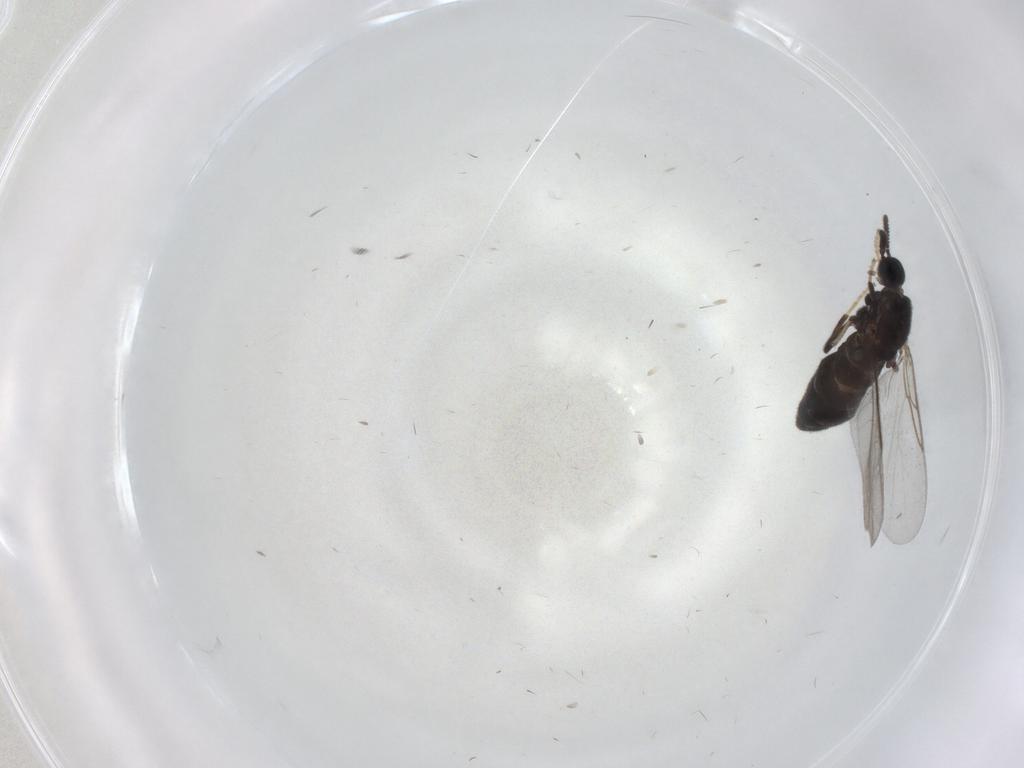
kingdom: Animalia
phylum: Arthropoda
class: Insecta
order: Diptera
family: Scatopsidae
